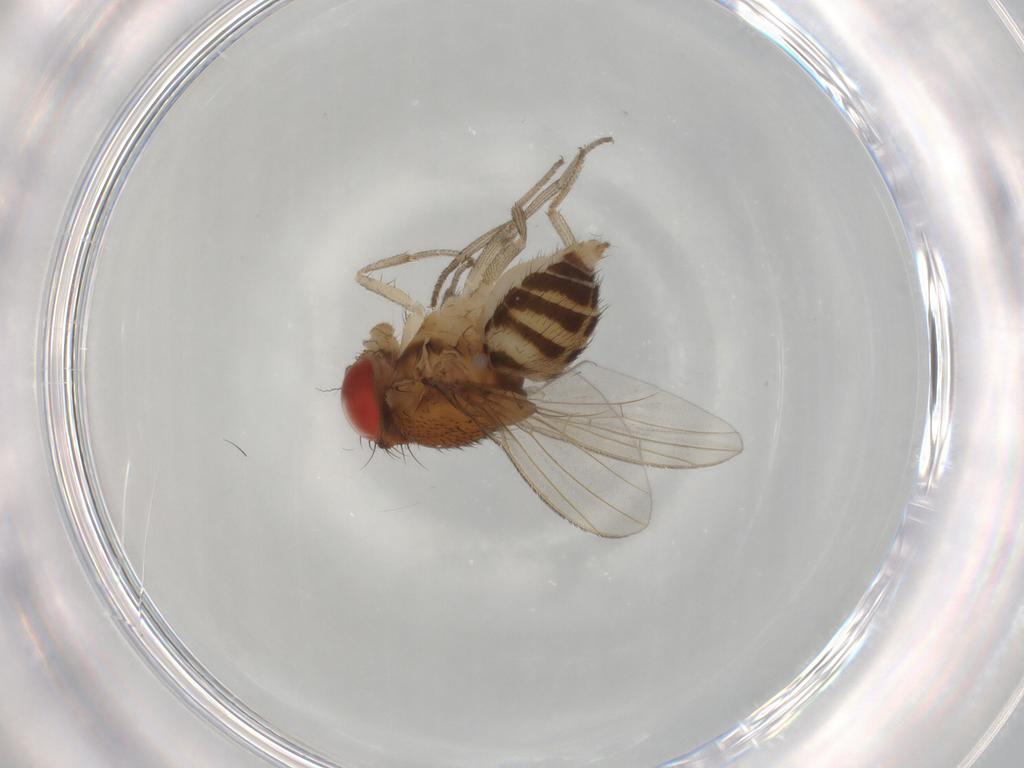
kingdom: Animalia
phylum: Arthropoda
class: Insecta
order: Diptera
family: Drosophilidae
